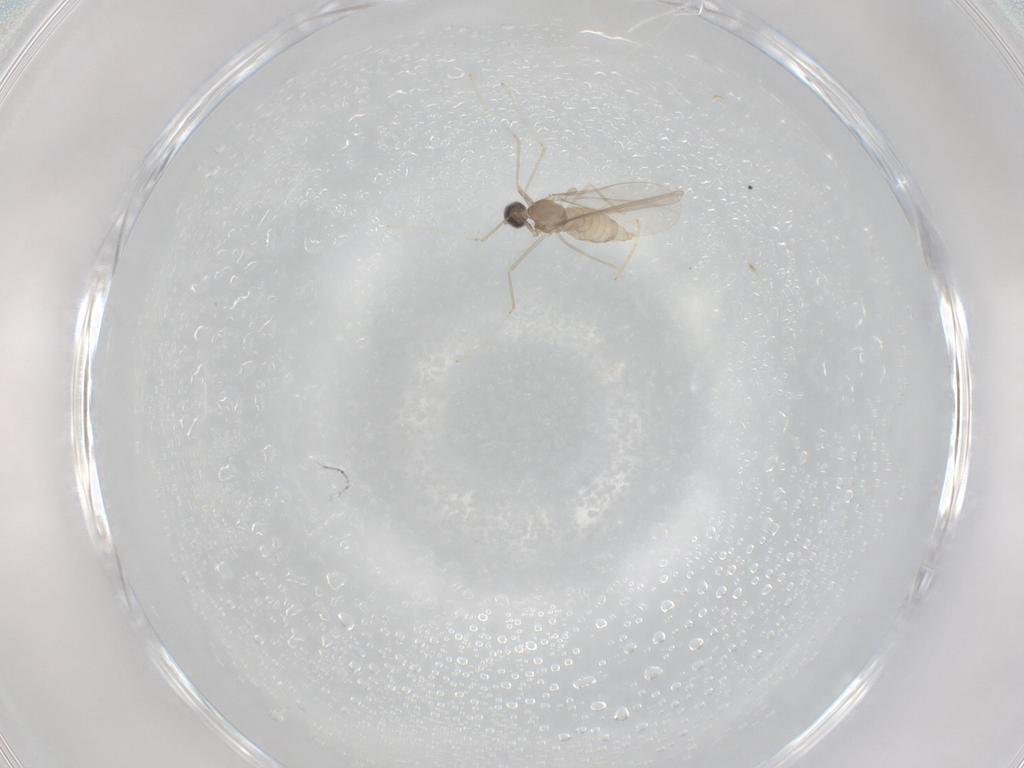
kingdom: Animalia
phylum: Arthropoda
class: Insecta
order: Diptera
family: Cecidomyiidae
